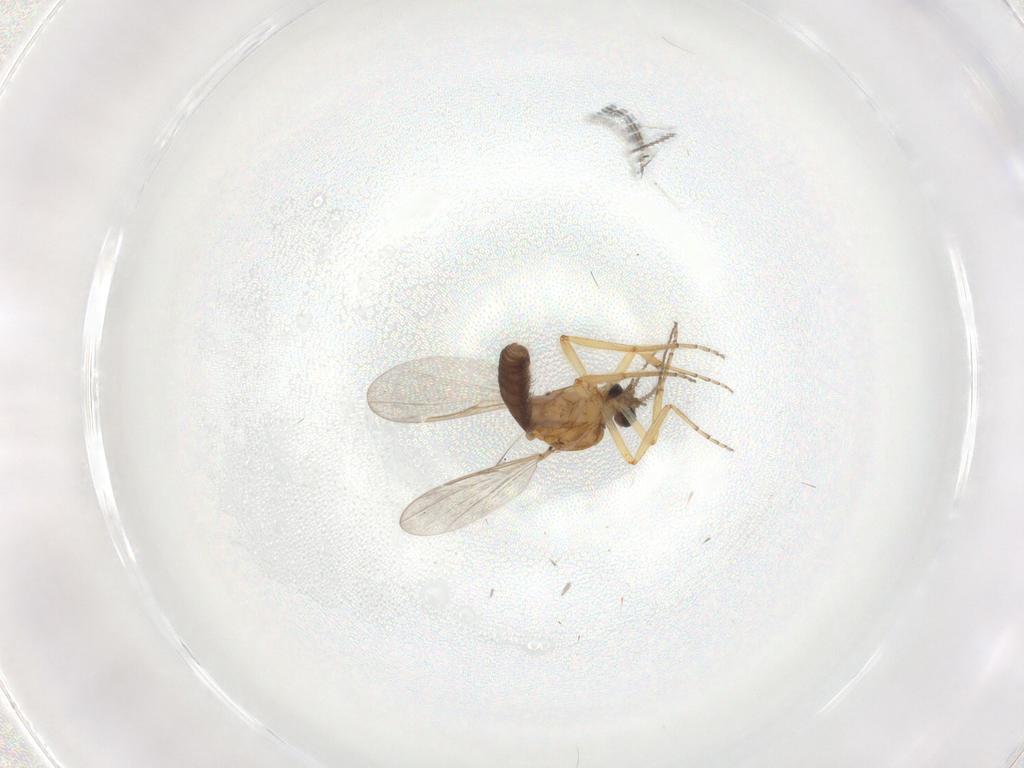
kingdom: Animalia
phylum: Arthropoda
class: Insecta
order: Diptera
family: Ceratopogonidae
